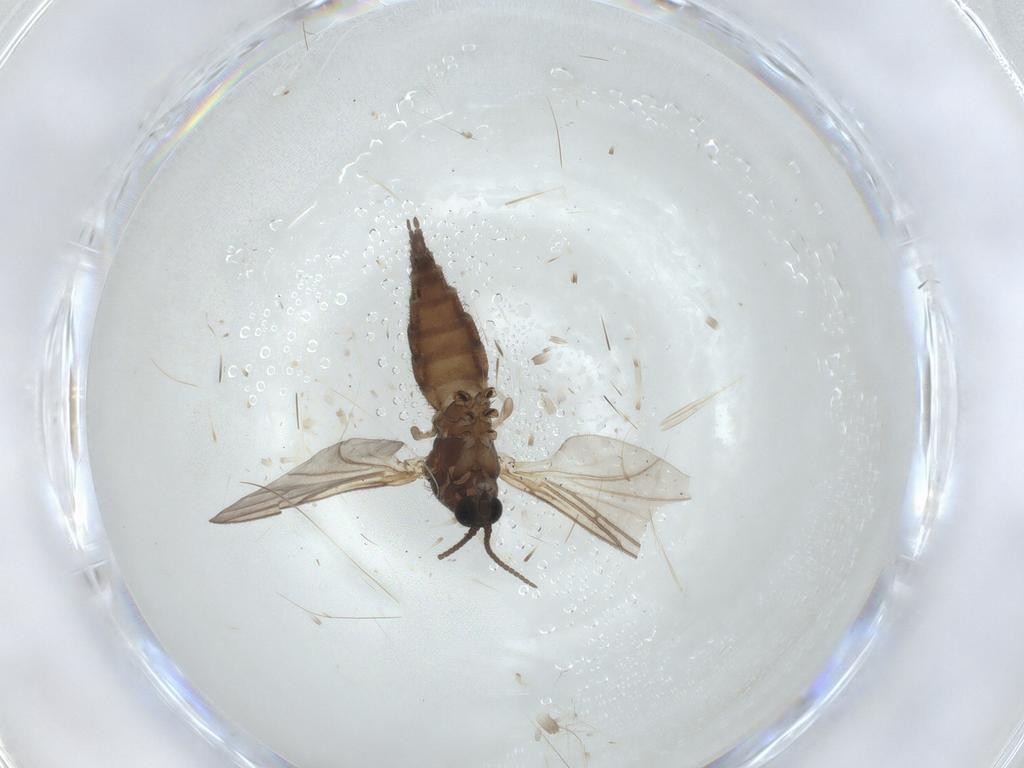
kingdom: Animalia
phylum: Arthropoda
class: Insecta
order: Diptera
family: Sciaridae
